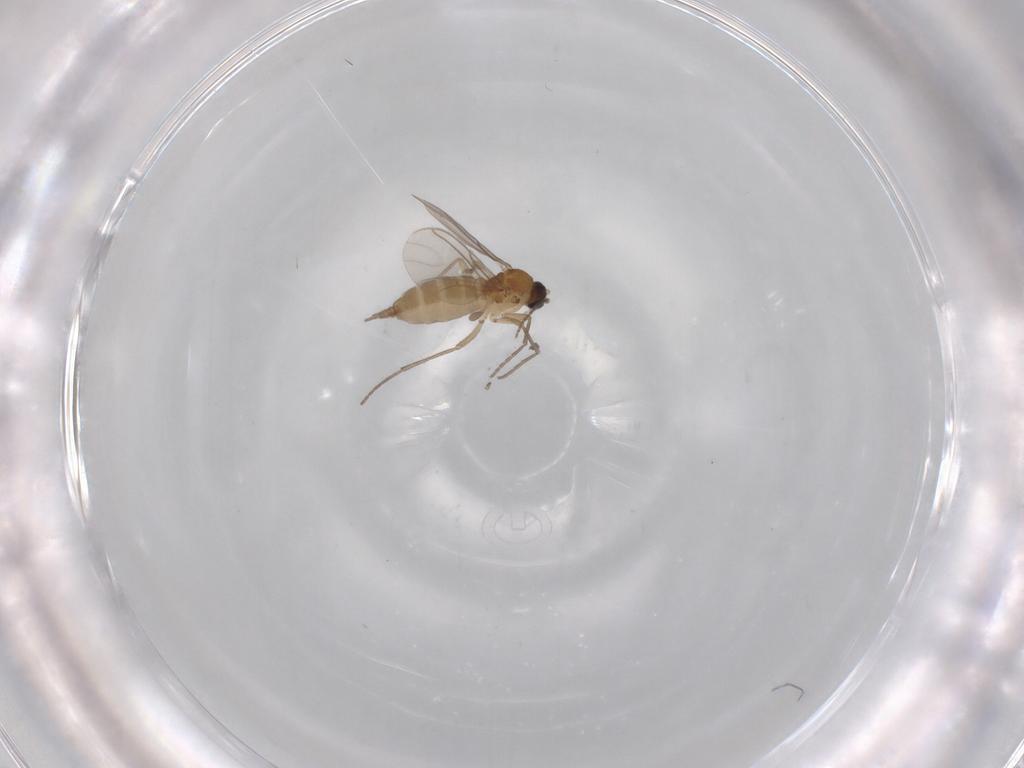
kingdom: Animalia
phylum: Arthropoda
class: Insecta
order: Diptera
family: Sciaridae
